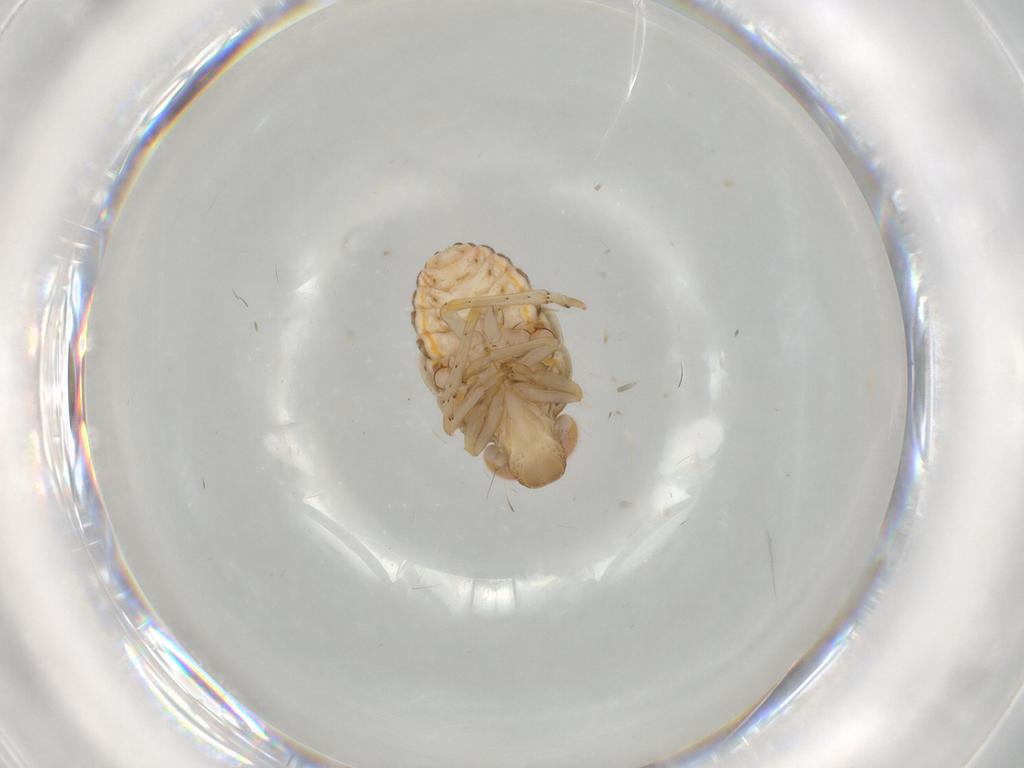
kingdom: Animalia
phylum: Arthropoda
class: Insecta
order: Hemiptera
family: Issidae
